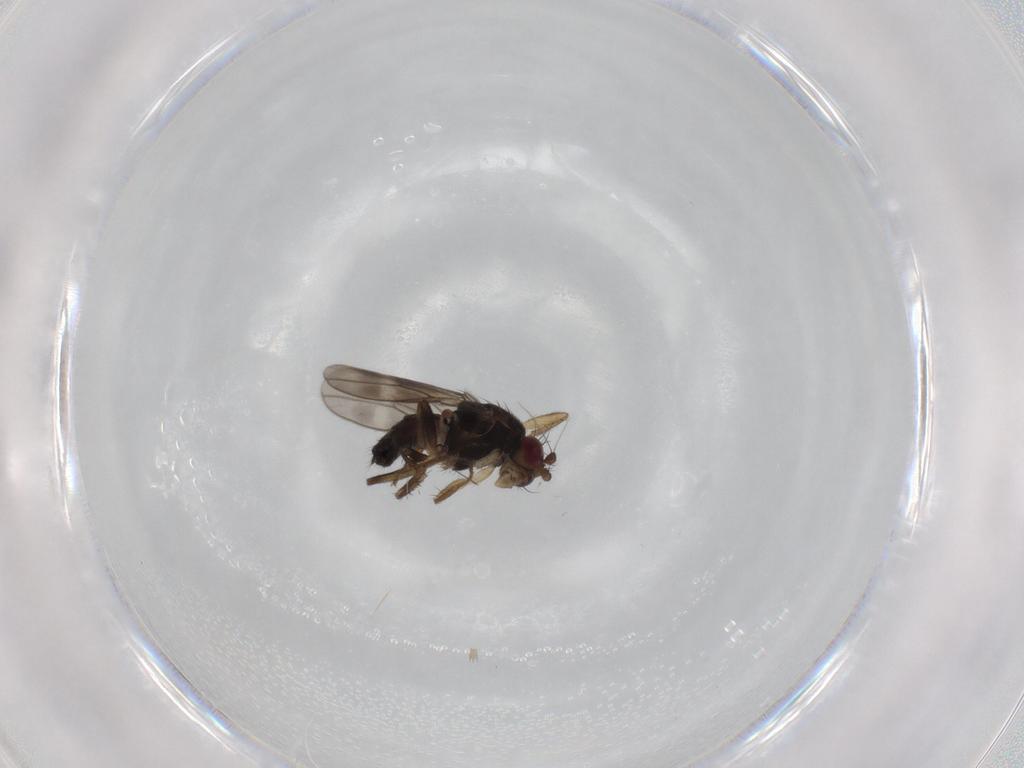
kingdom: Animalia
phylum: Arthropoda
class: Insecta
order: Diptera
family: Sphaeroceridae
